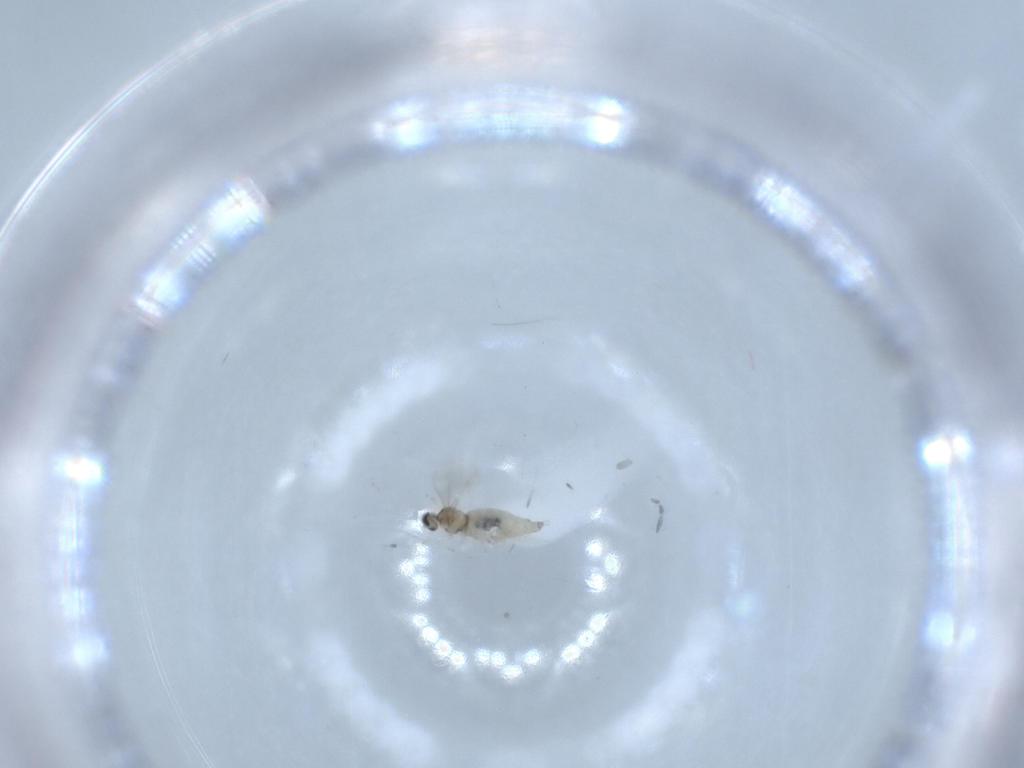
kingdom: Animalia
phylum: Arthropoda
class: Insecta
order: Diptera
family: Cecidomyiidae
